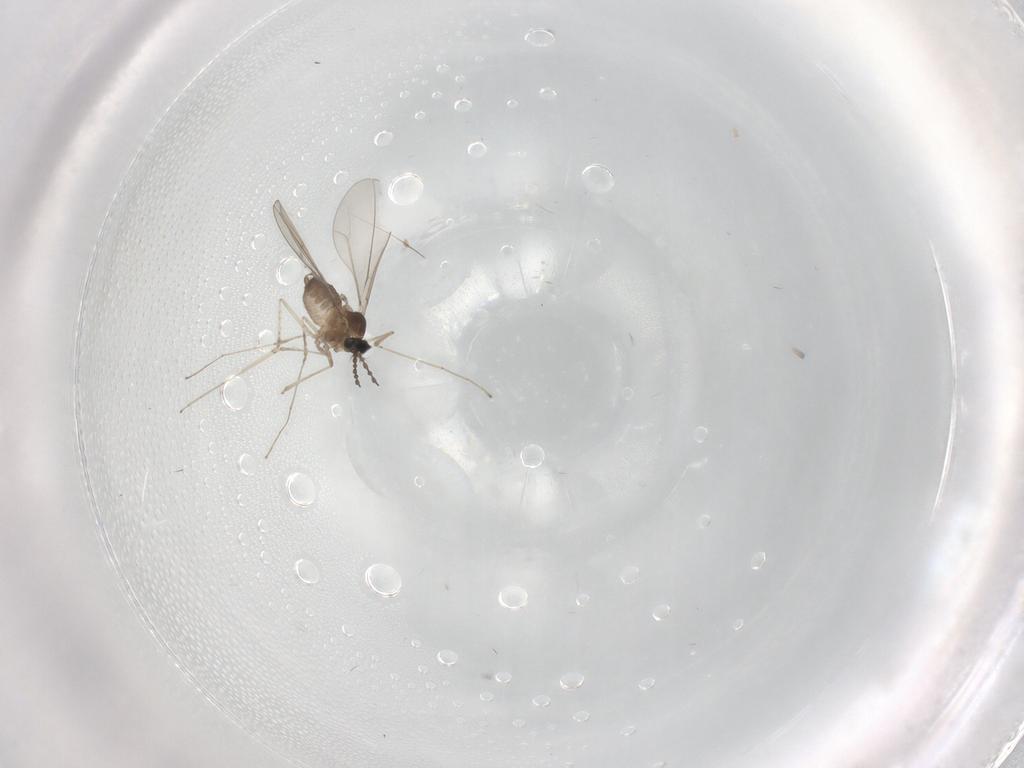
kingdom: Animalia
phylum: Arthropoda
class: Insecta
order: Diptera
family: Cecidomyiidae
